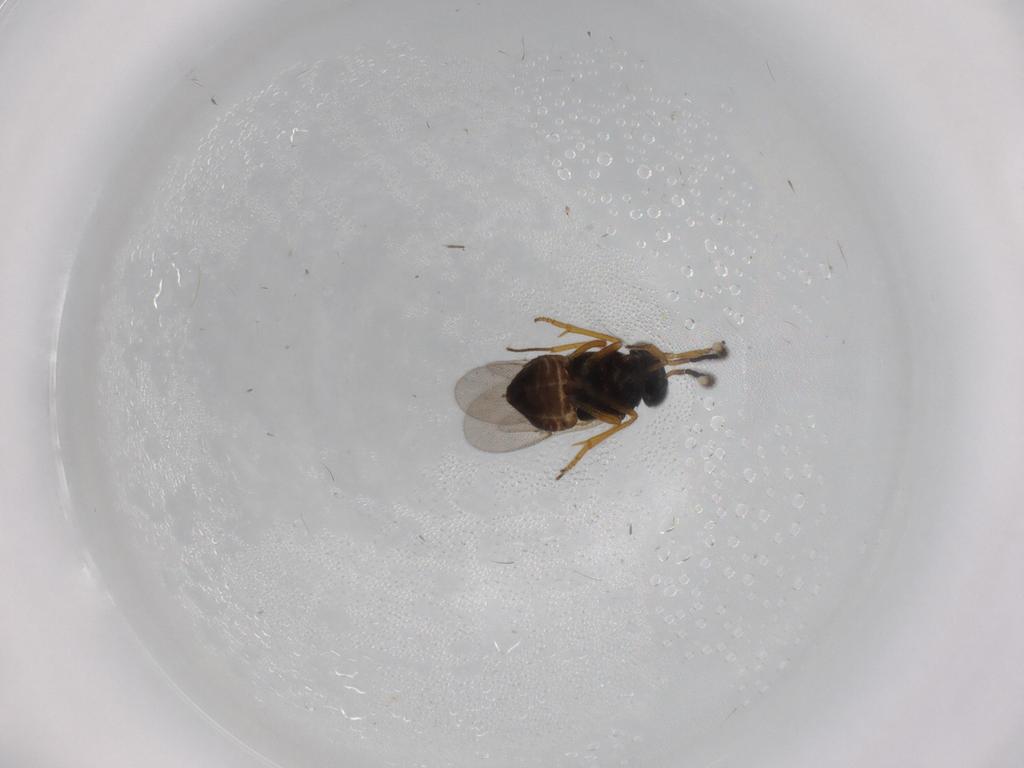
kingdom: Animalia
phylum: Arthropoda
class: Insecta
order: Hymenoptera
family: Encyrtidae
